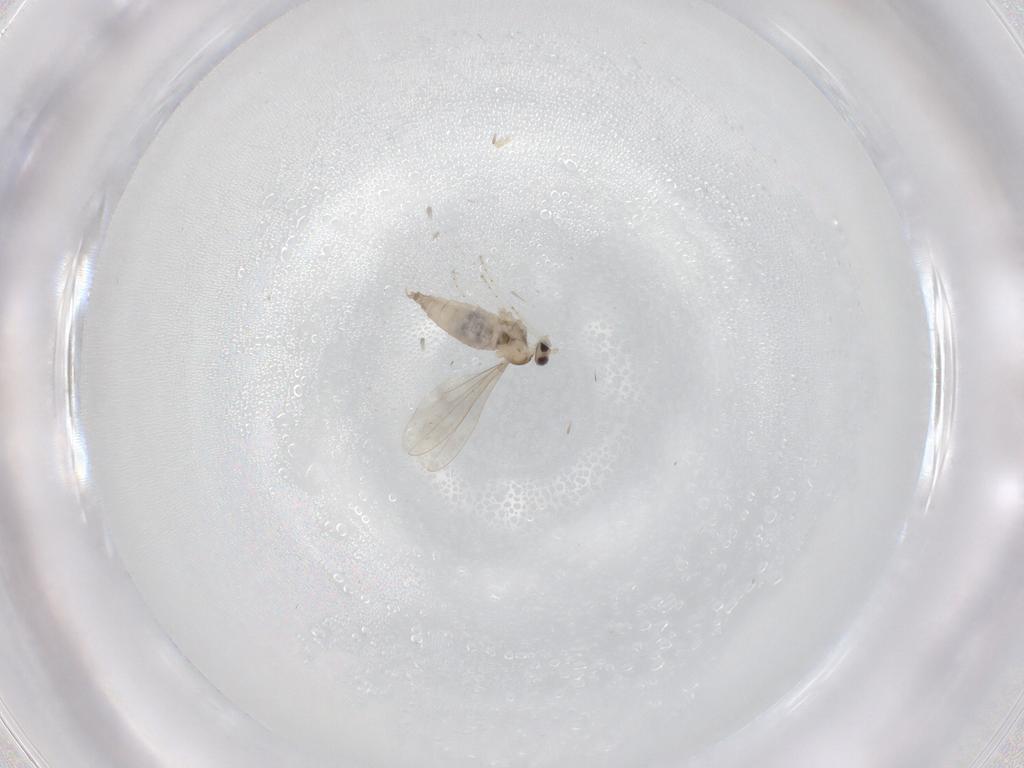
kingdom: Animalia
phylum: Arthropoda
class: Insecta
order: Diptera
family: Cecidomyiidae
